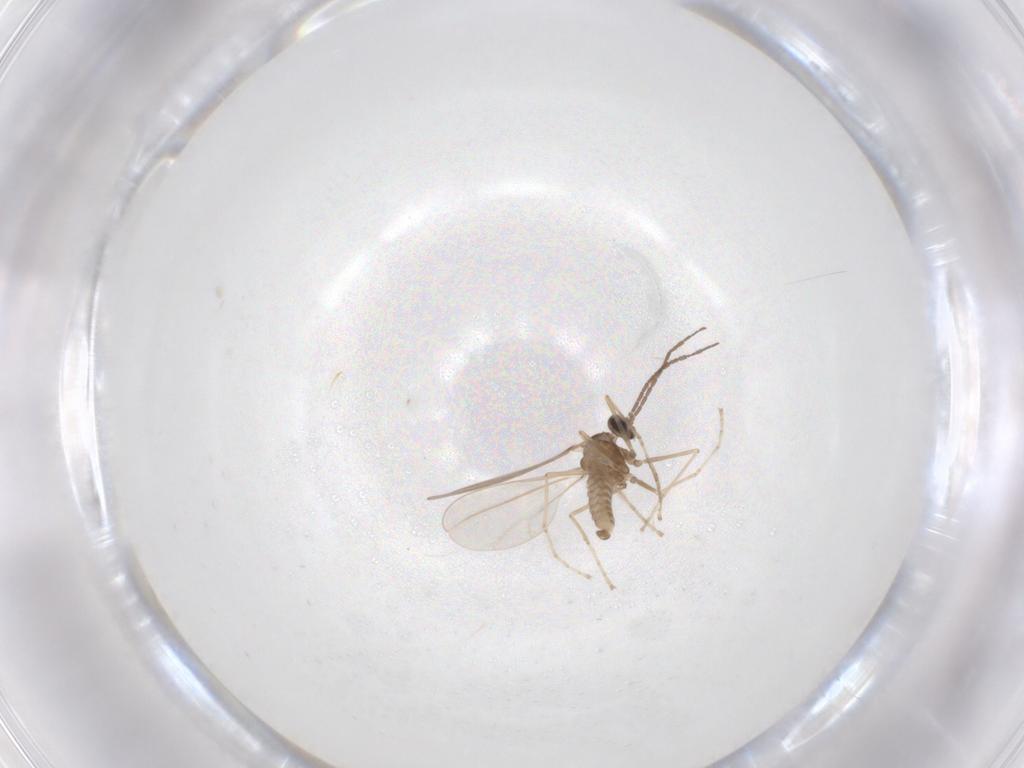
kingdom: Animalia
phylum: Arthropoda
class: Insecta
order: Diptera
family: Cecidomyiidae
